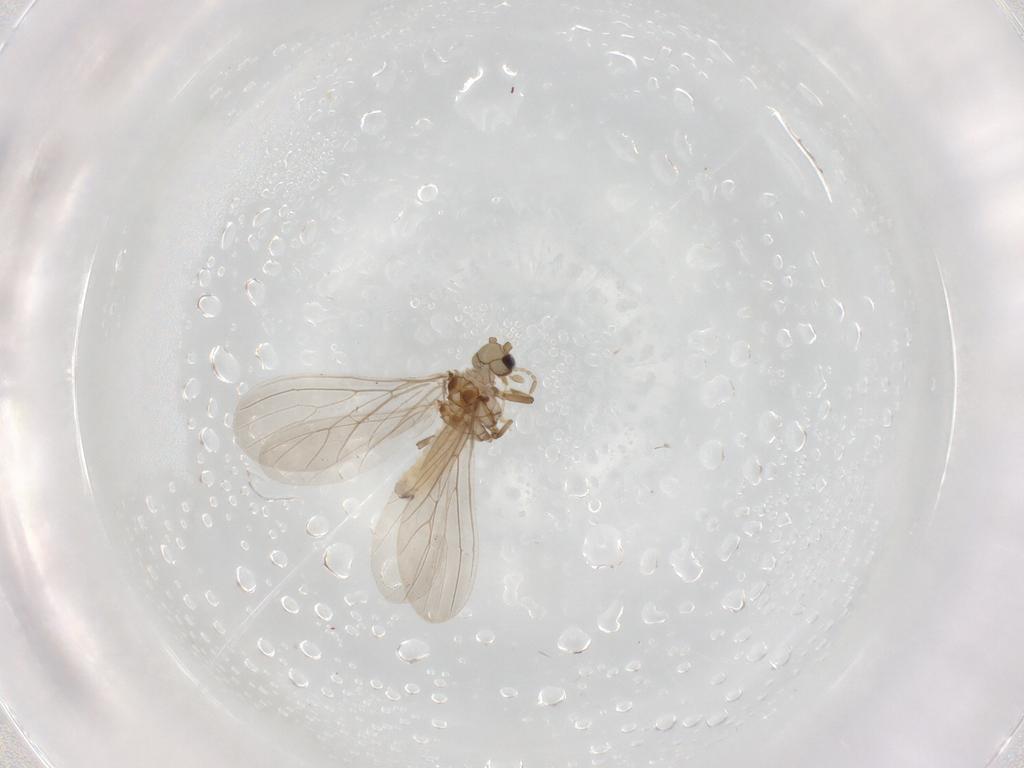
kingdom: Animalia
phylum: Arthropoda
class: Insecta
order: Neuroptera
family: Coniopterygidae
